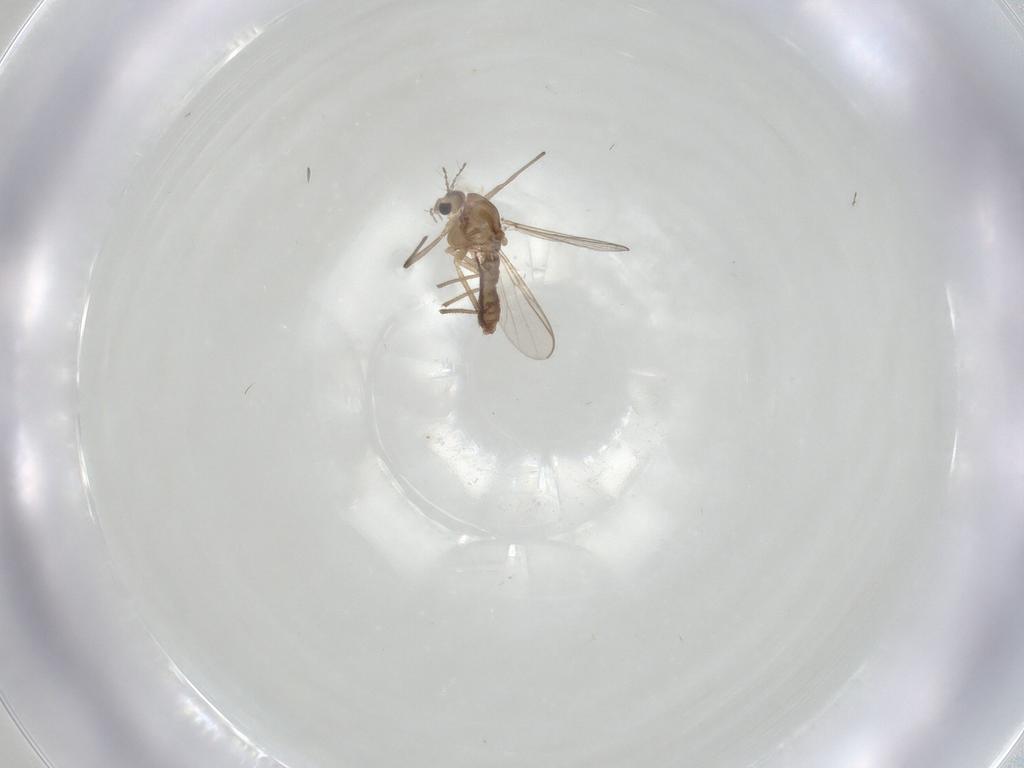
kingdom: Animalia
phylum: Arthropoda
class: Insecta
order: Diptera
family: Chironomidae
